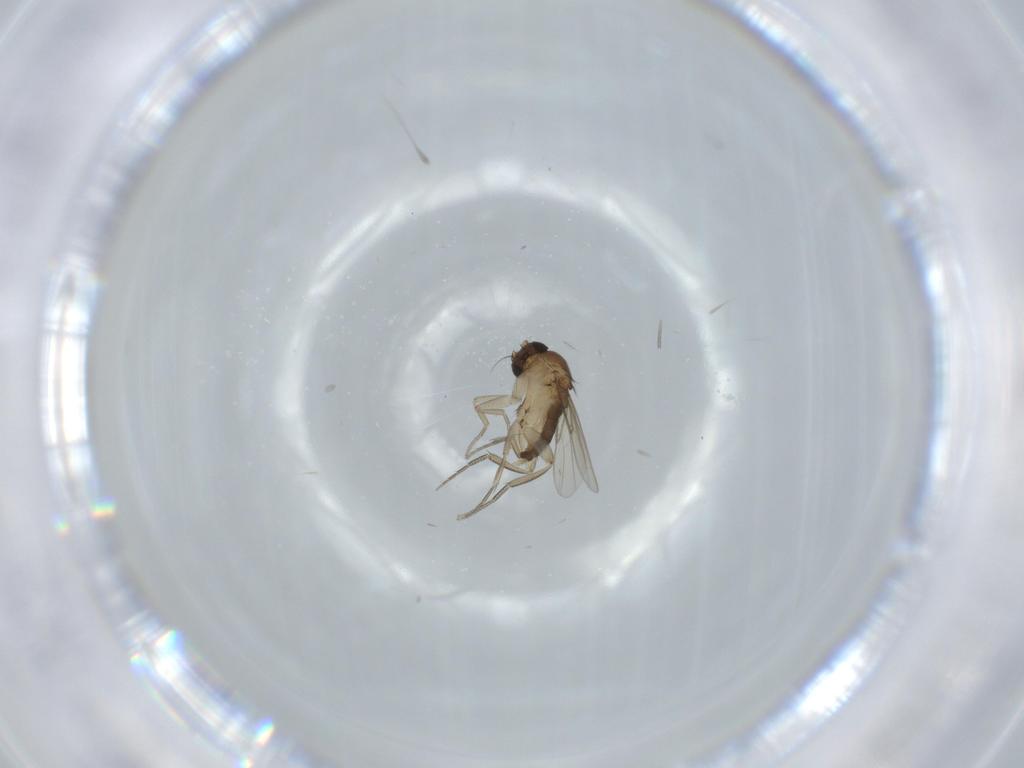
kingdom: Animalia
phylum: Arthropoda
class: Insecta
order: Diptera
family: Phoridae
